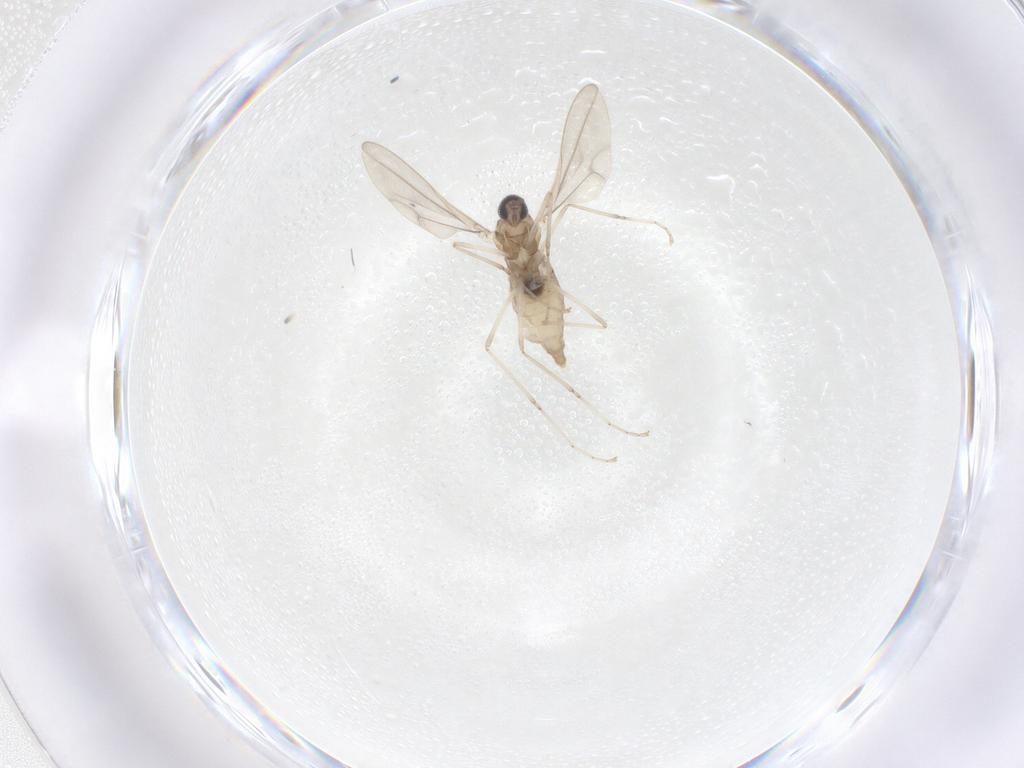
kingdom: Animalia
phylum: Arthropoda
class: Insecta
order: Diptera
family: Cecidomyiidae
